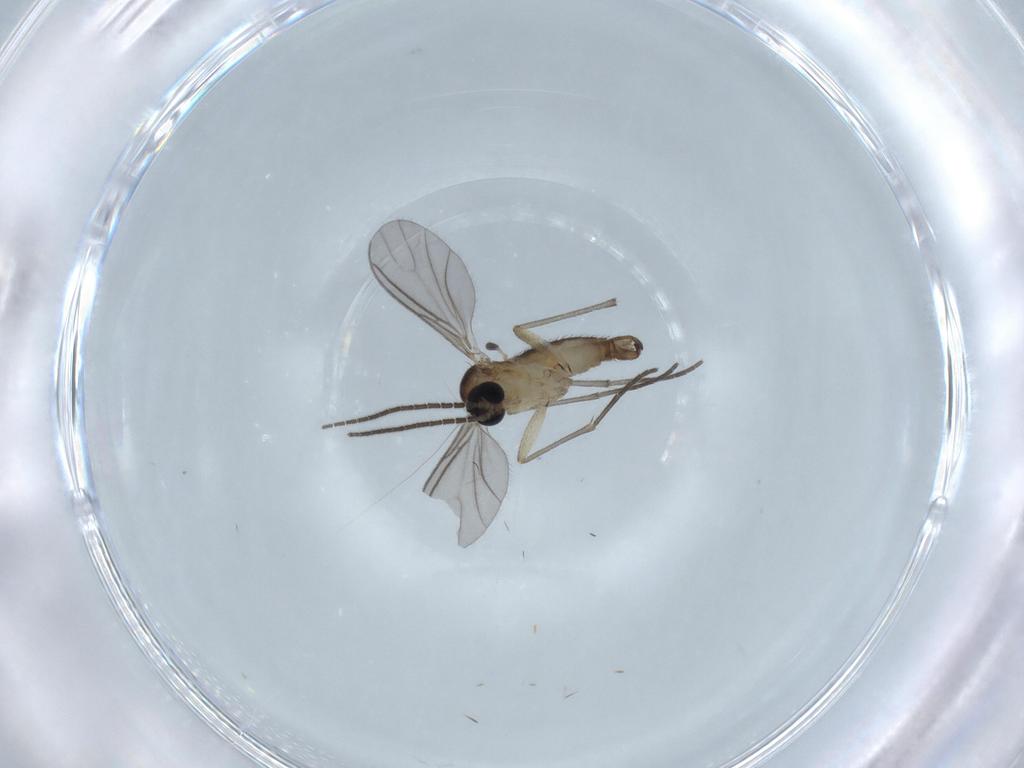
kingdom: Animalia
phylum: Arthropoda
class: Insecta
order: Diptera
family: Sciaridae
